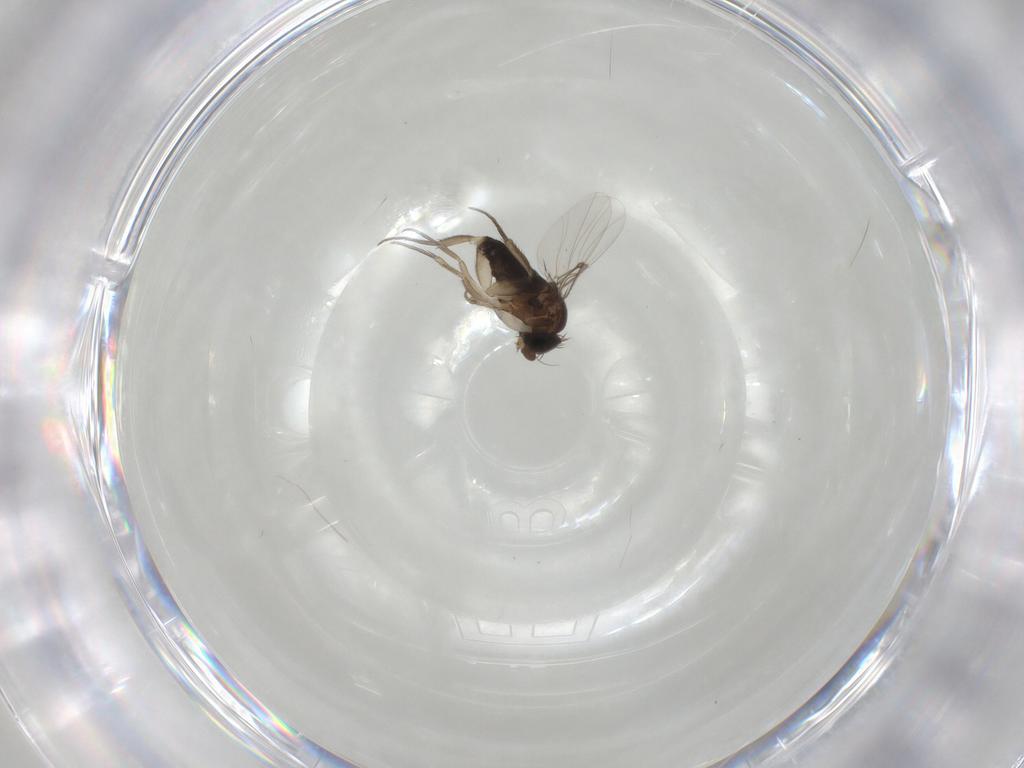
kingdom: Animalia
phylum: Arthropoda
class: Insecta
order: Diptera
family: Phoridae
